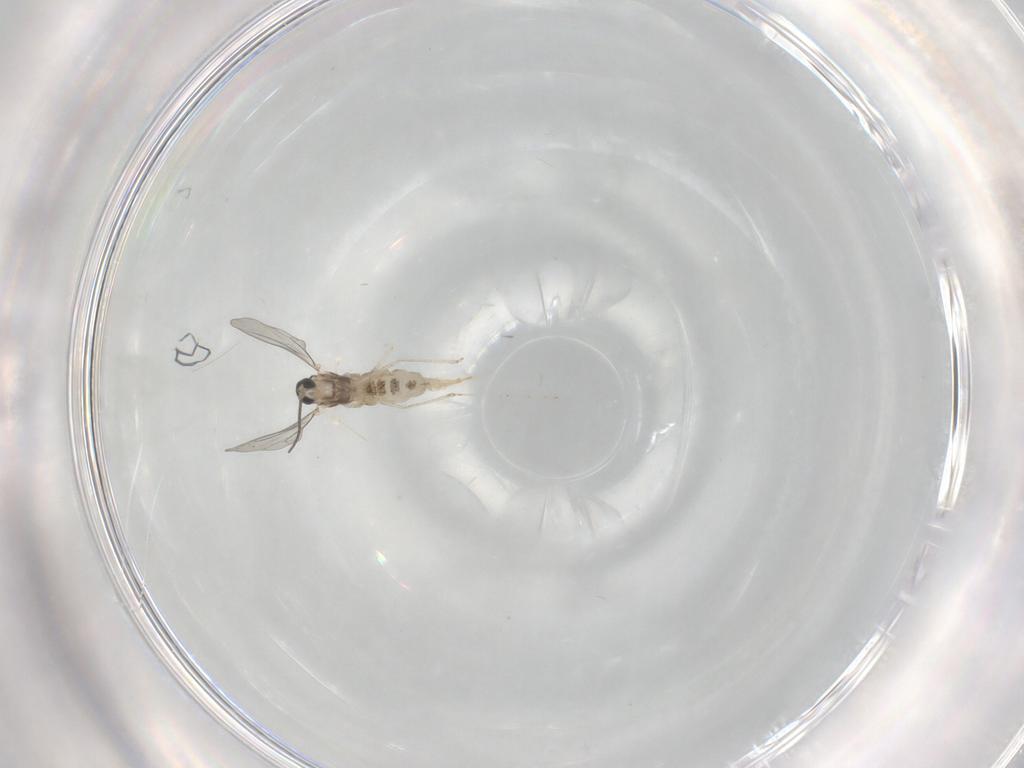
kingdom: Animalia
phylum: Arthropoda
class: Insecta
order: Diptera
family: Cecidomyiidae
